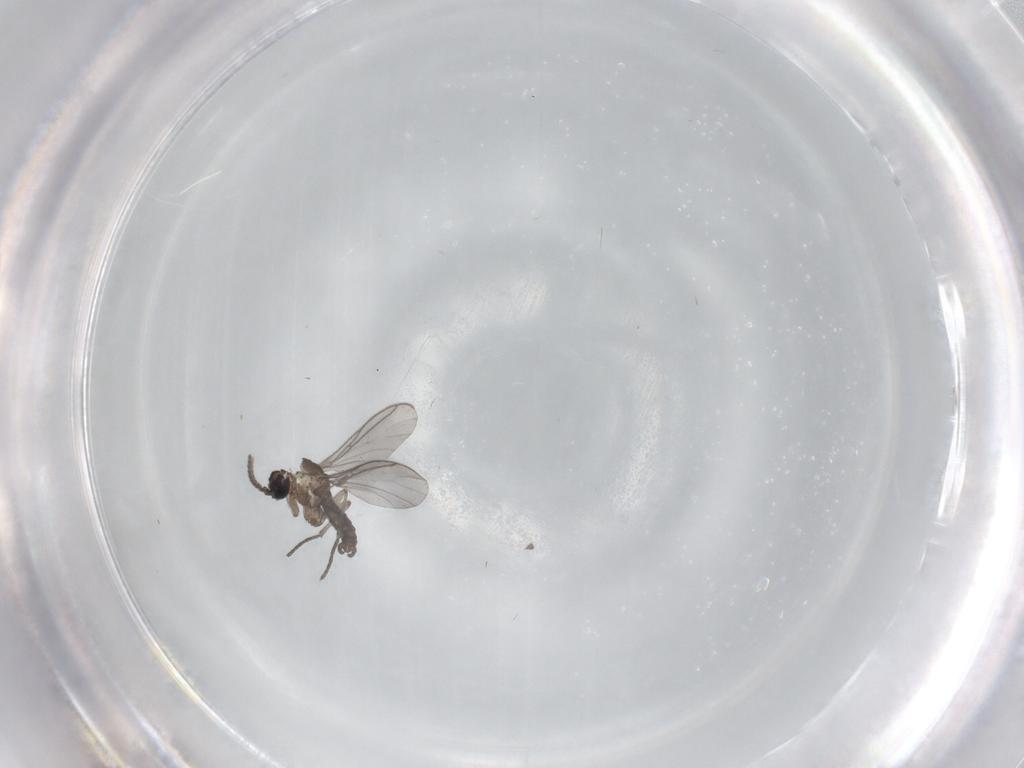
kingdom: Animalia
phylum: Arthropoda
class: Insecta
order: Diptera
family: Sciaridae
